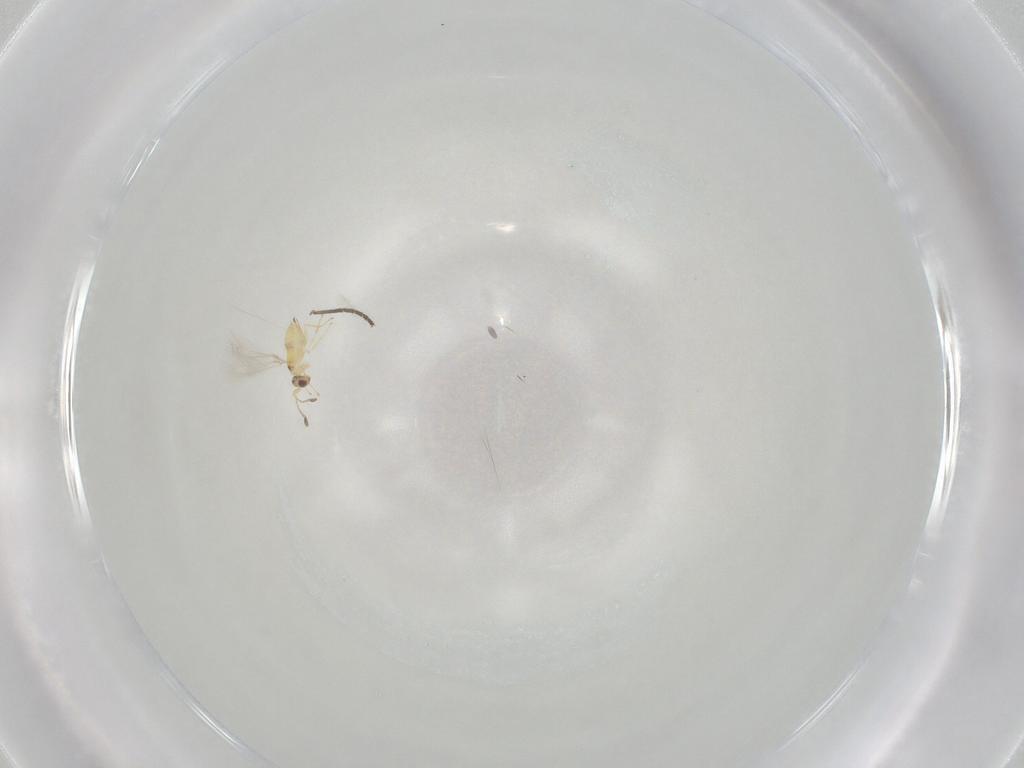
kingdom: Animalia
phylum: Arthropoda
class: Insecta
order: Hymenoptera
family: Mymaridae
